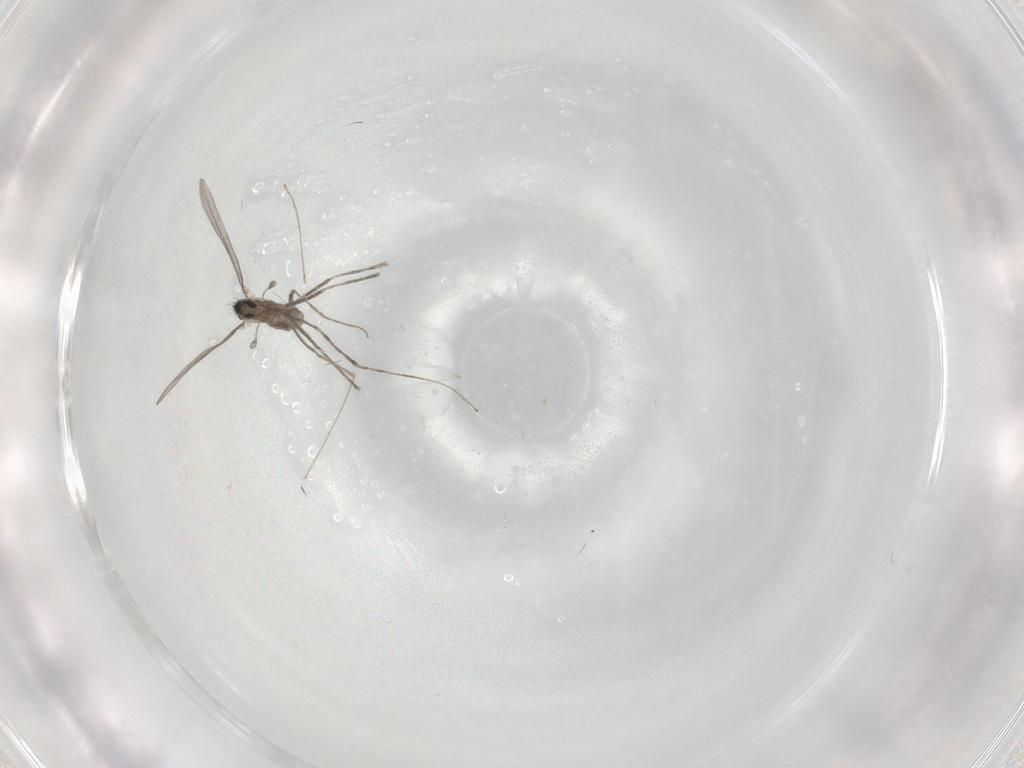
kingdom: Animalia
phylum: Arthropoda
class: Insecta
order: Diptera
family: Cecidomyiidae
